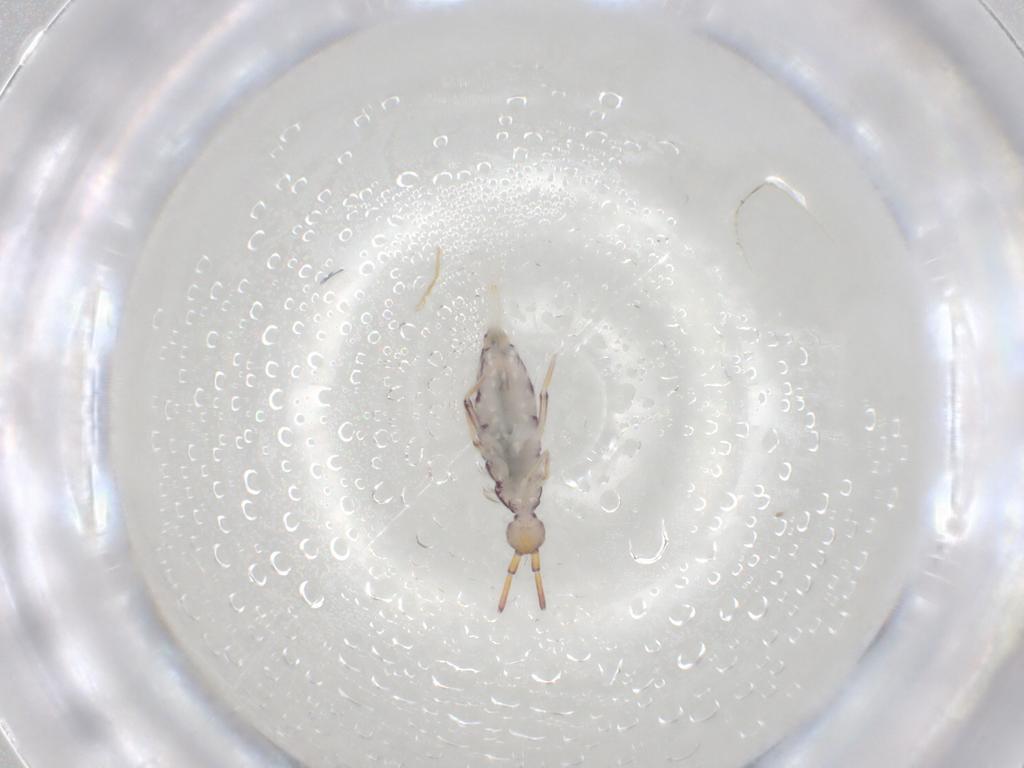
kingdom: Animalia
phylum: Arthropoda
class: Collembola
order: Entomobryomorpha
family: Entomobryidae
